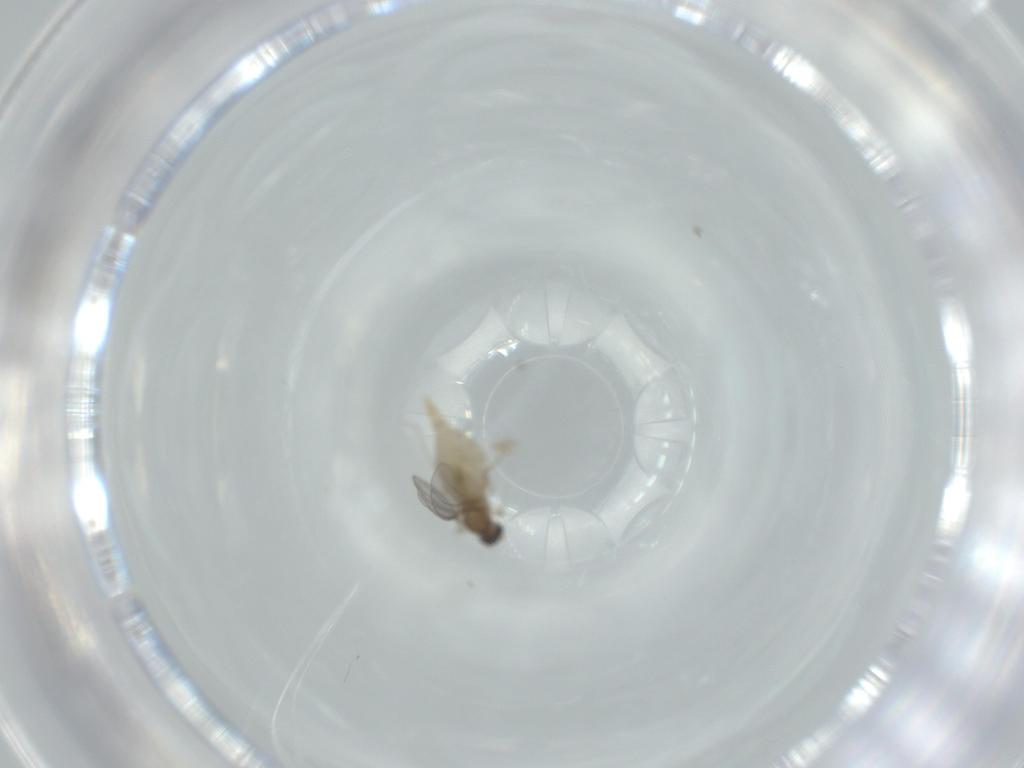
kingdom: Animalia
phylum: Arthropoda
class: Insecta
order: Diptera
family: Cecidomyiidae
